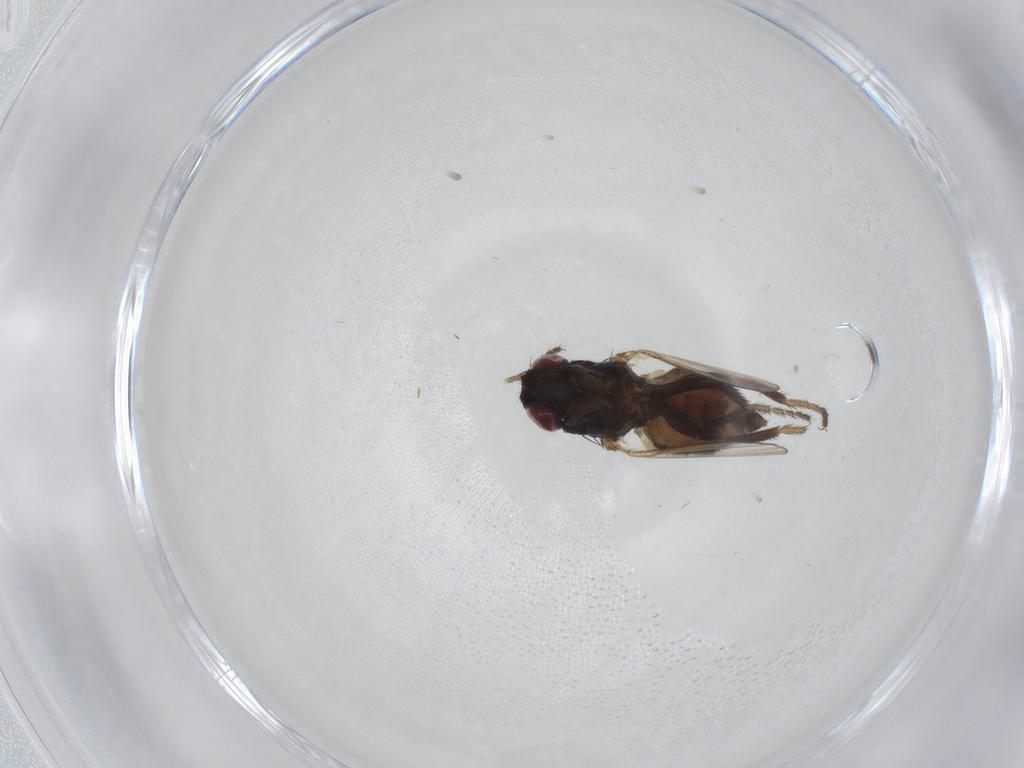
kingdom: Animalia
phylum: Arthropoda
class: Insecta
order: Diptera
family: Milichiidae
